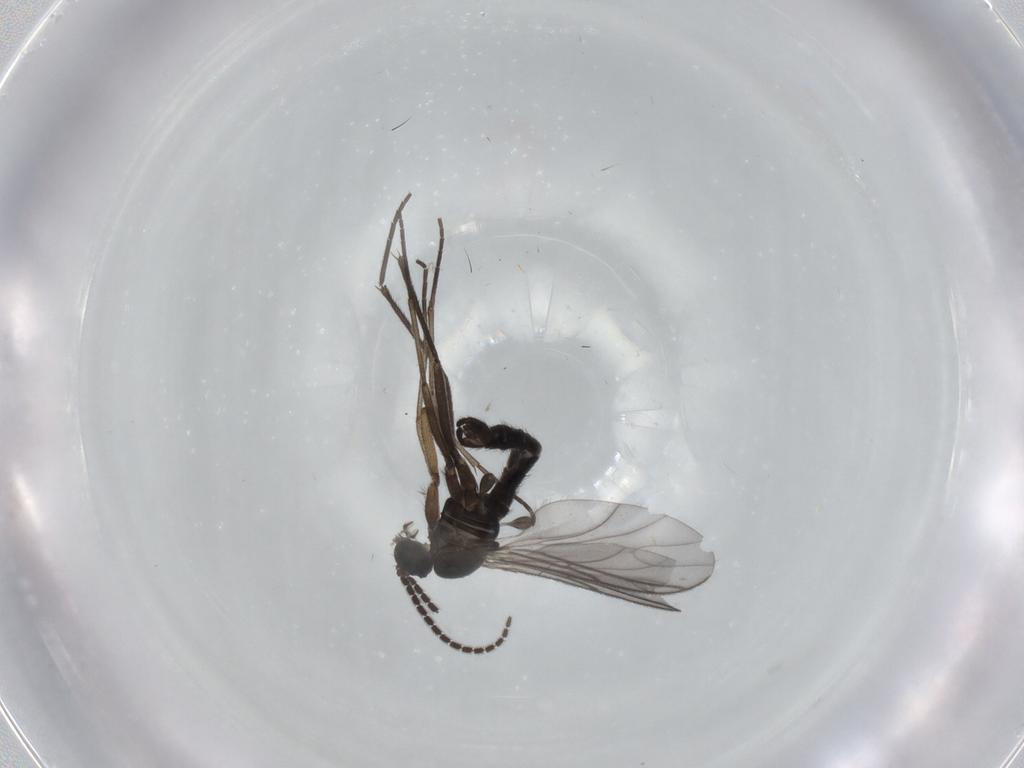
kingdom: Animalia
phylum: Arthropoda
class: Insecta
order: Diptera
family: Sciaridae
